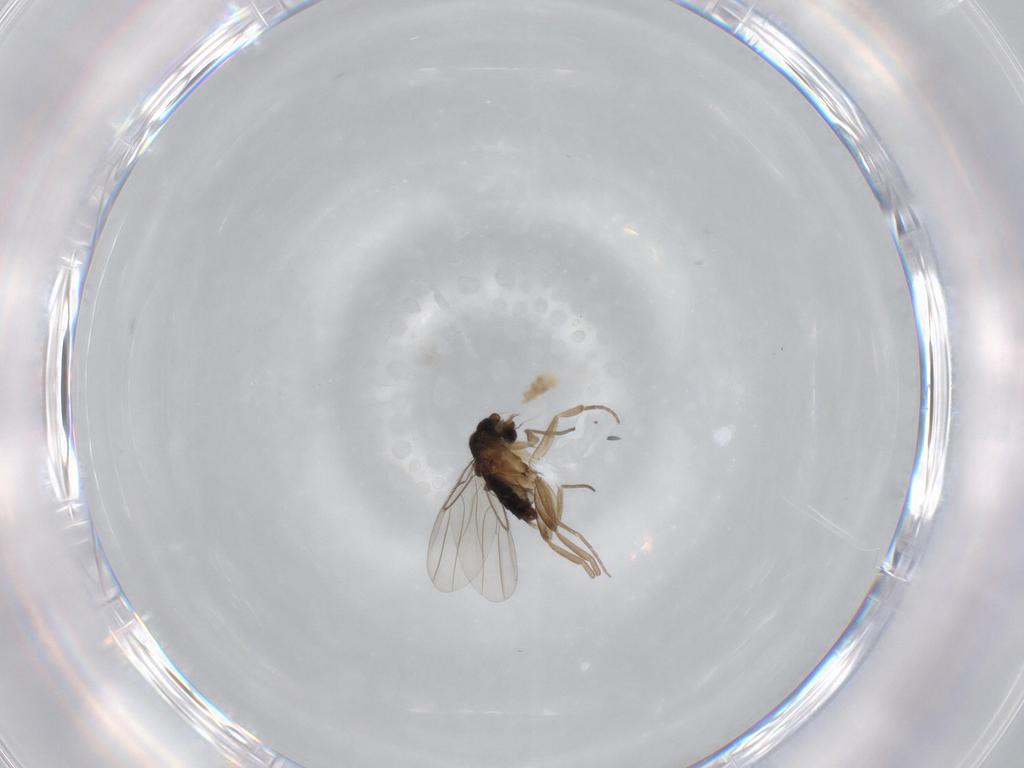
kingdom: Animalia
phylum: Arthropoda
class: Insecta
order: Diptera
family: Phoridae
